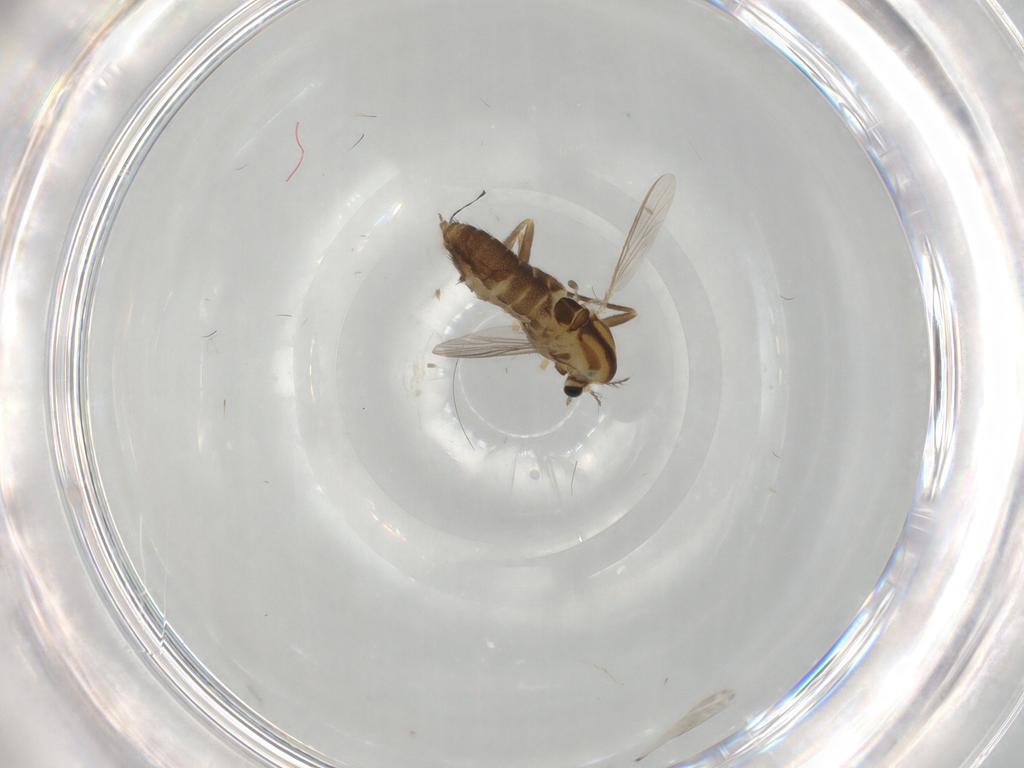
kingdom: Animalia
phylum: Arthropoda
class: Insecta
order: Diptera
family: Chironomidae
